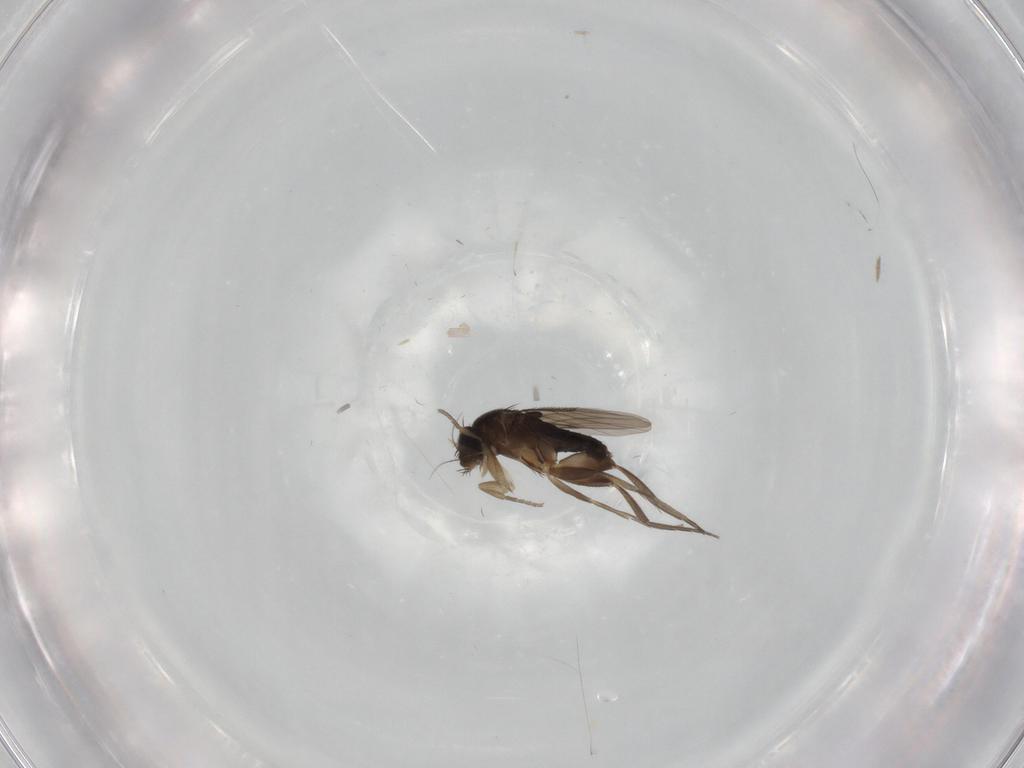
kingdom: Animalia
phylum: Arthropoda
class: Insecta
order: Diptera
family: Phoridae
